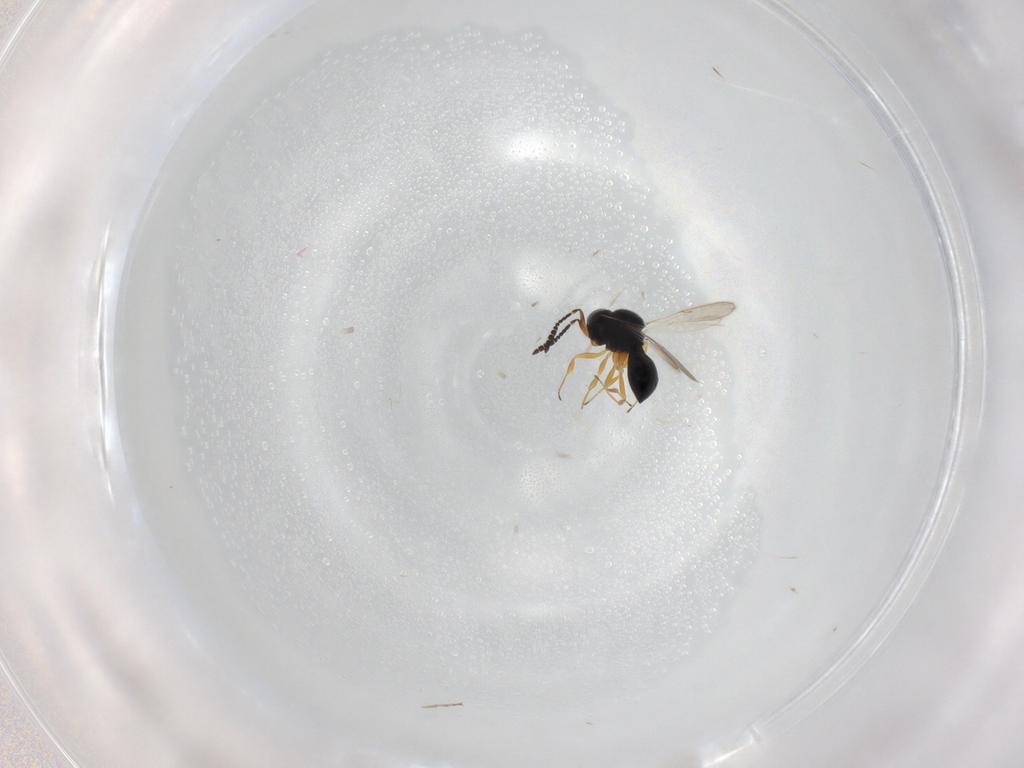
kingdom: Animalia
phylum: Arthropoda
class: Insecta
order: Hymenoptera
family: Scelionidae
